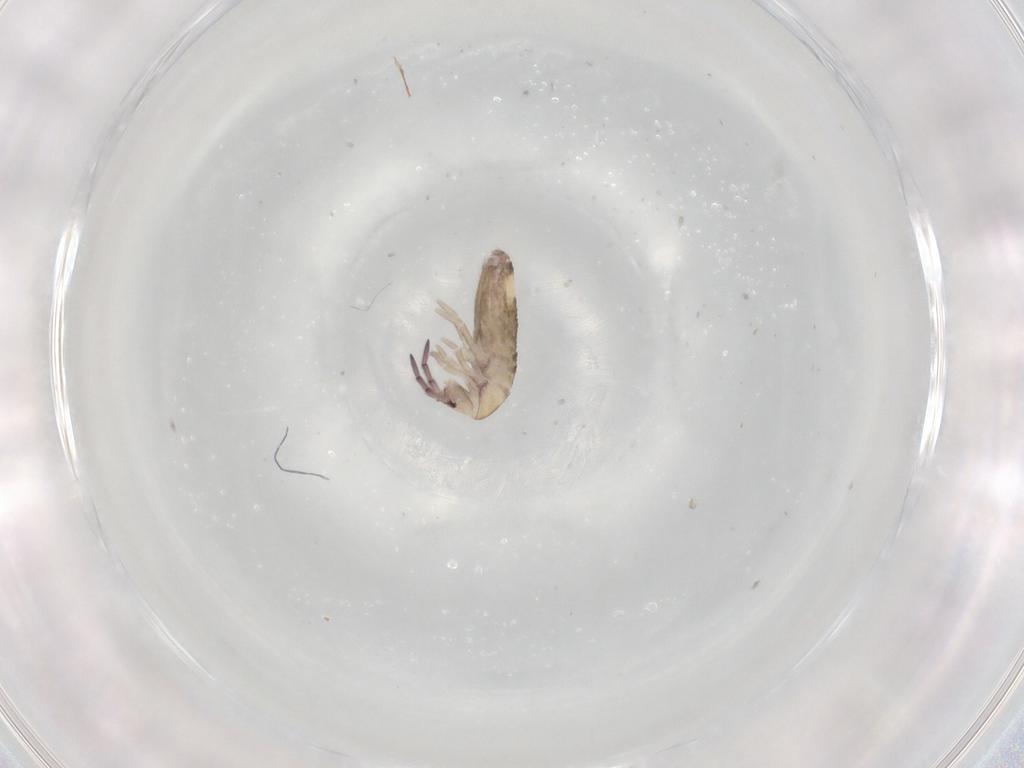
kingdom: Animalia
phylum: Arthropoda
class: Collembola
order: Entomobryomorpha
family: Entomobryidae
